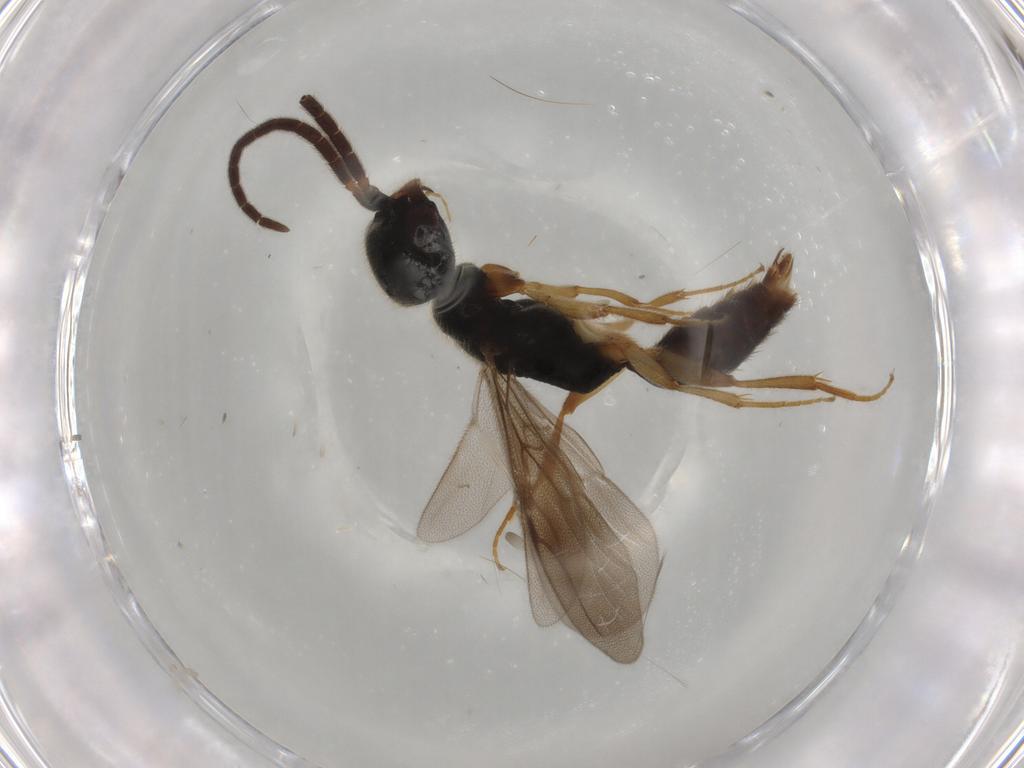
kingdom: Animalia
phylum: Arthropoda
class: Insecta
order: Hymenoptera
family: Bethylidae
